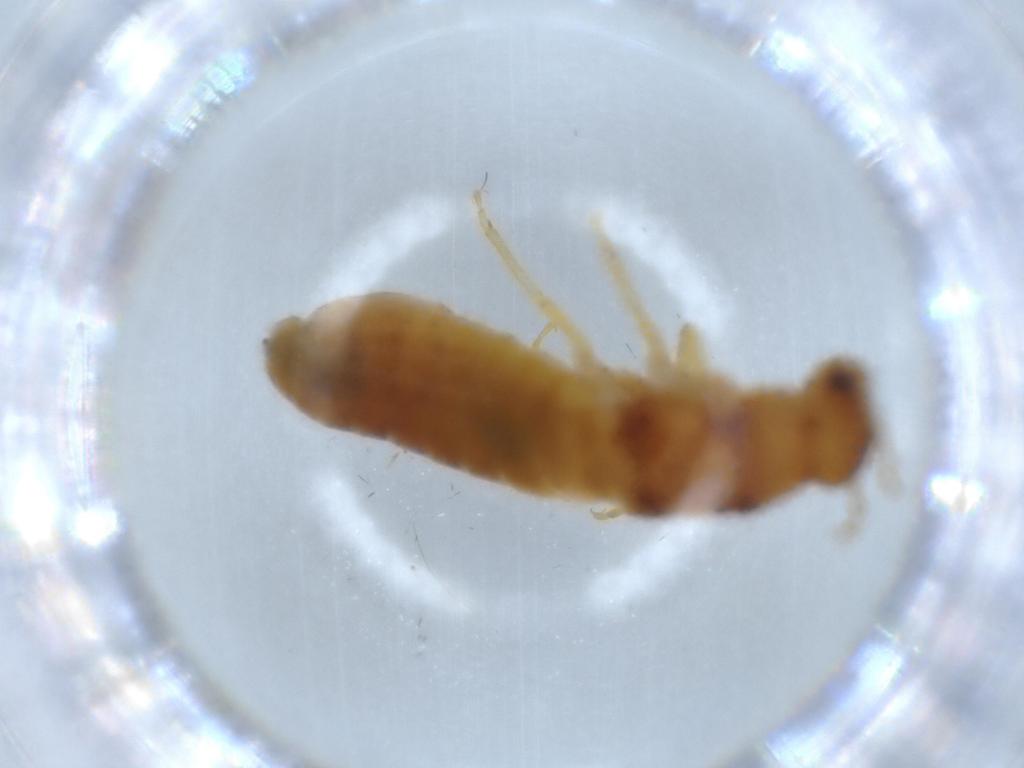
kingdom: Animalia
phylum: Arthropoda
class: Insecta
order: Blattodea
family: Kalotermitidae
